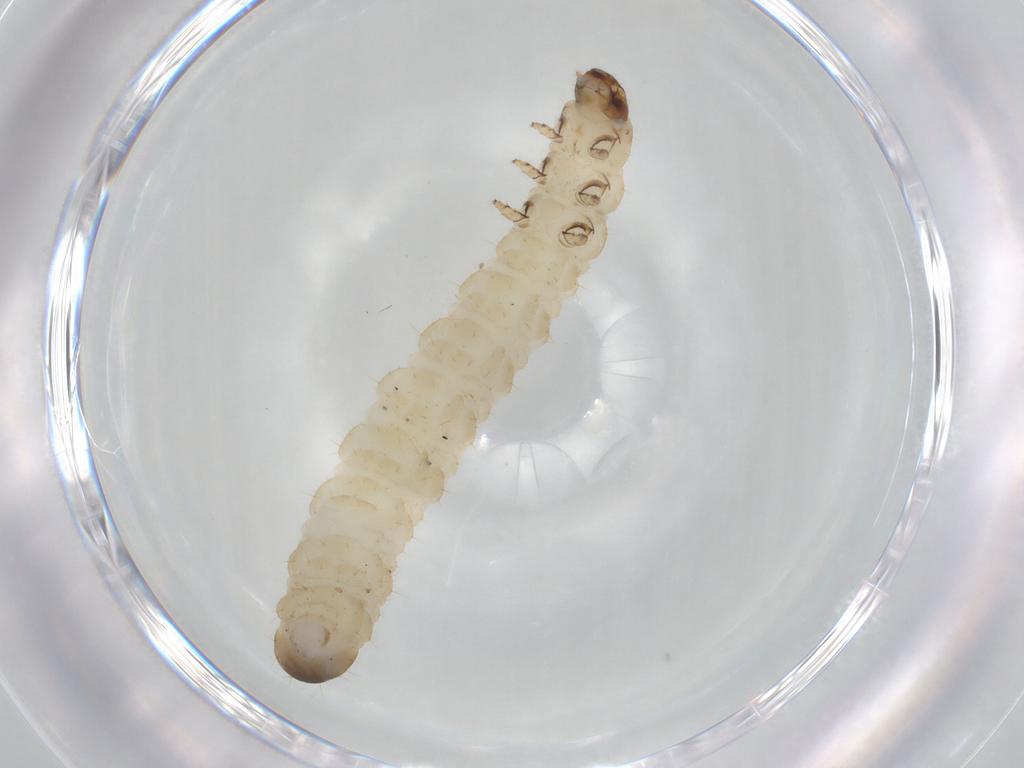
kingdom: Animalia
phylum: Arthropoda
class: Insecta
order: Coleoptera
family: Chrysomelidae
